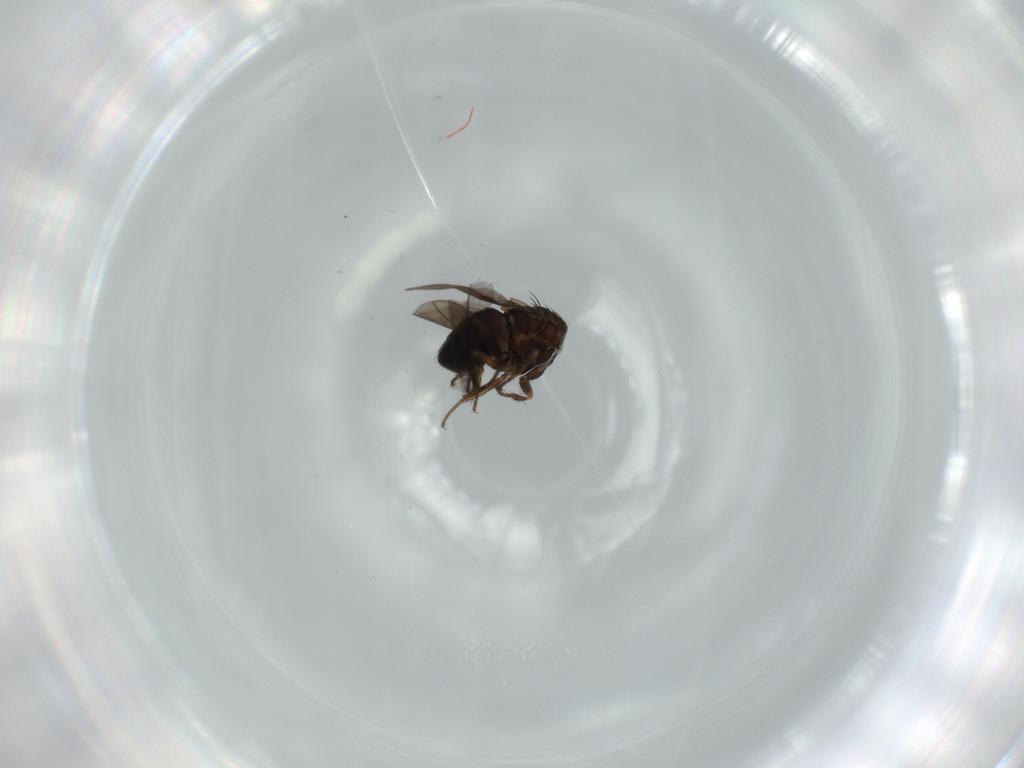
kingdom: Animalia
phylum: Arthropoda
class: Insecta
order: Diptera
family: Sphaeroceridae
